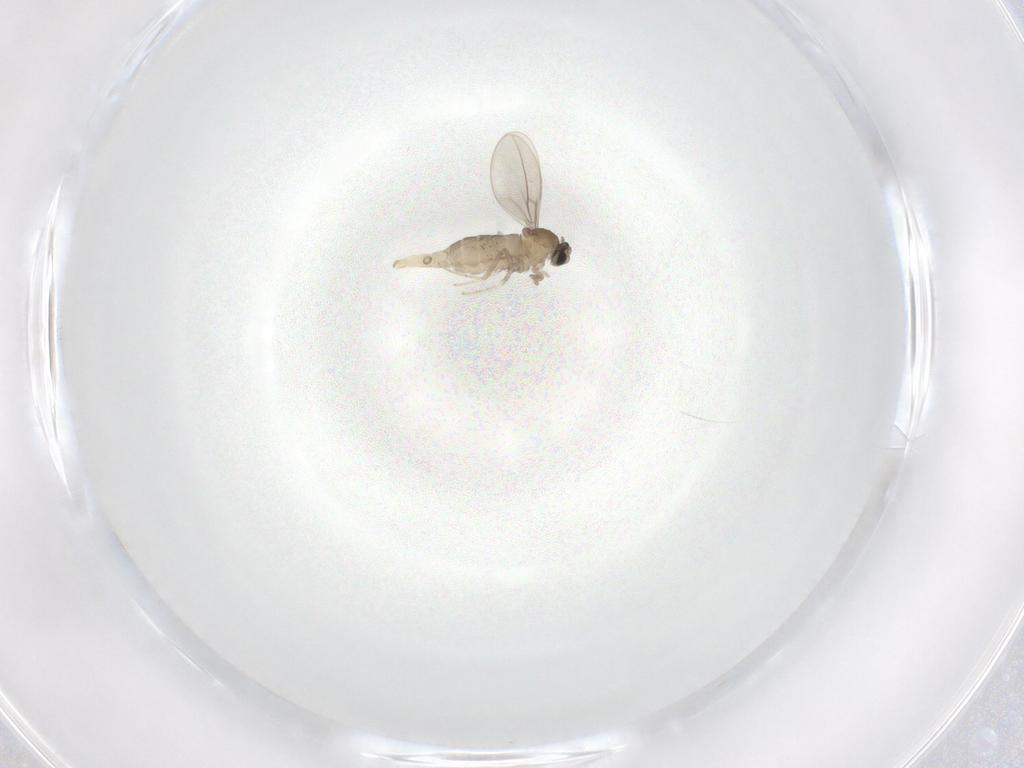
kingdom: Animalia
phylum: Arthropoda
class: Insecta
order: Diptera
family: Cecidomyiidae
